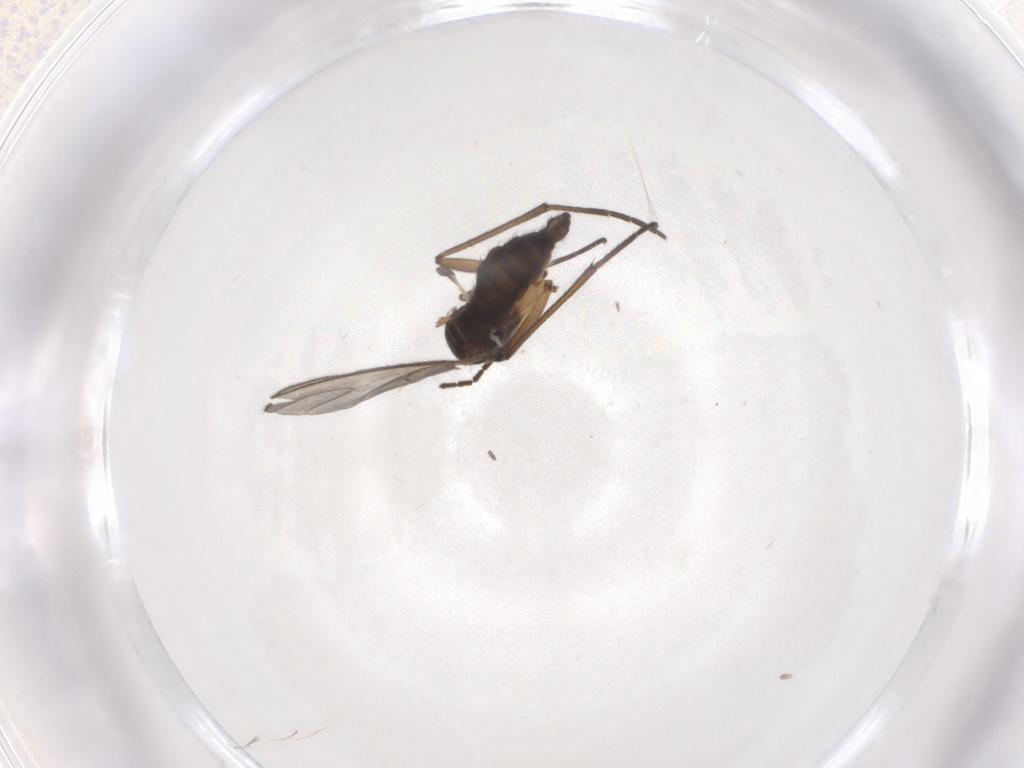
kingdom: Animalia
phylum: Arthropoda
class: Insecta
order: Diptera
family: Sciaridae
